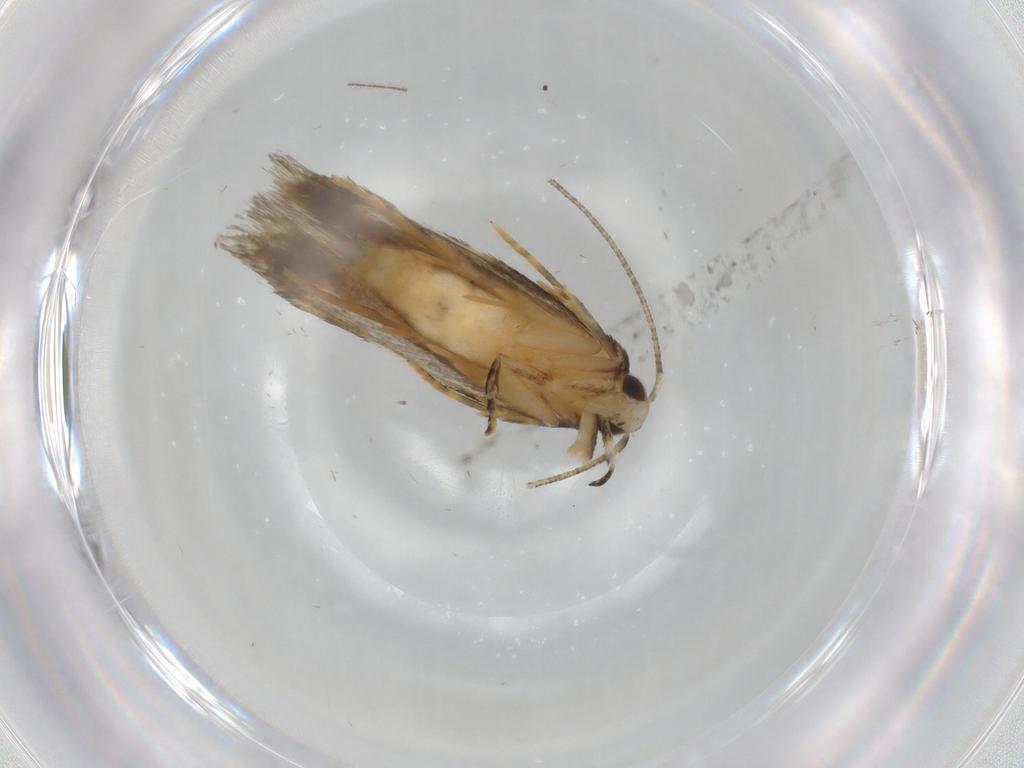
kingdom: Animalia
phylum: Arthropoda
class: Insecta
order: Lepidoptera
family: Autostichidae
